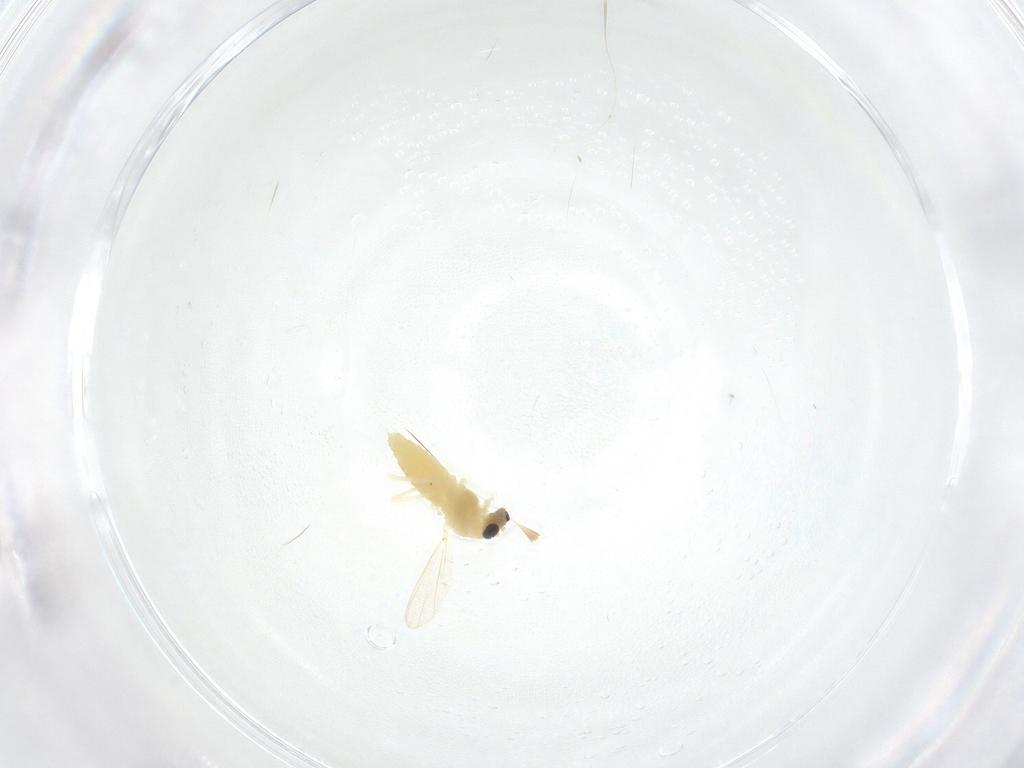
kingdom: Animalia
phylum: Arthropoda
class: Insecta
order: Diptera
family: Chironomidae
